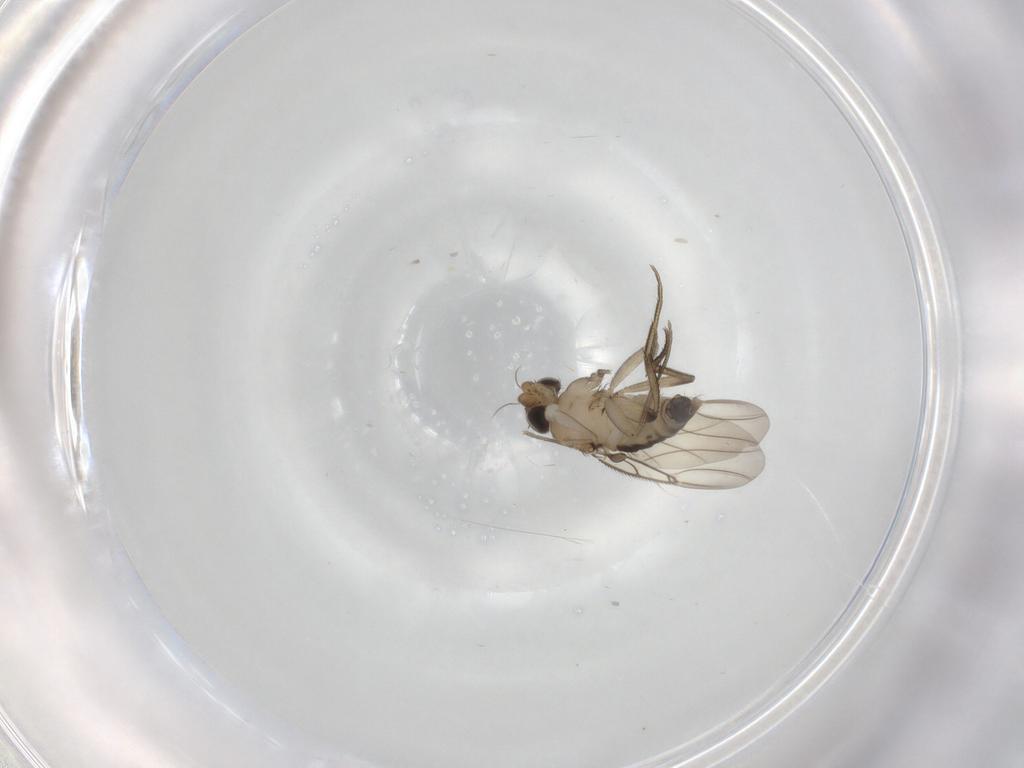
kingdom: Animalia
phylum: Arthropoda
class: Insecta
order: Diptera
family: Phoridae
